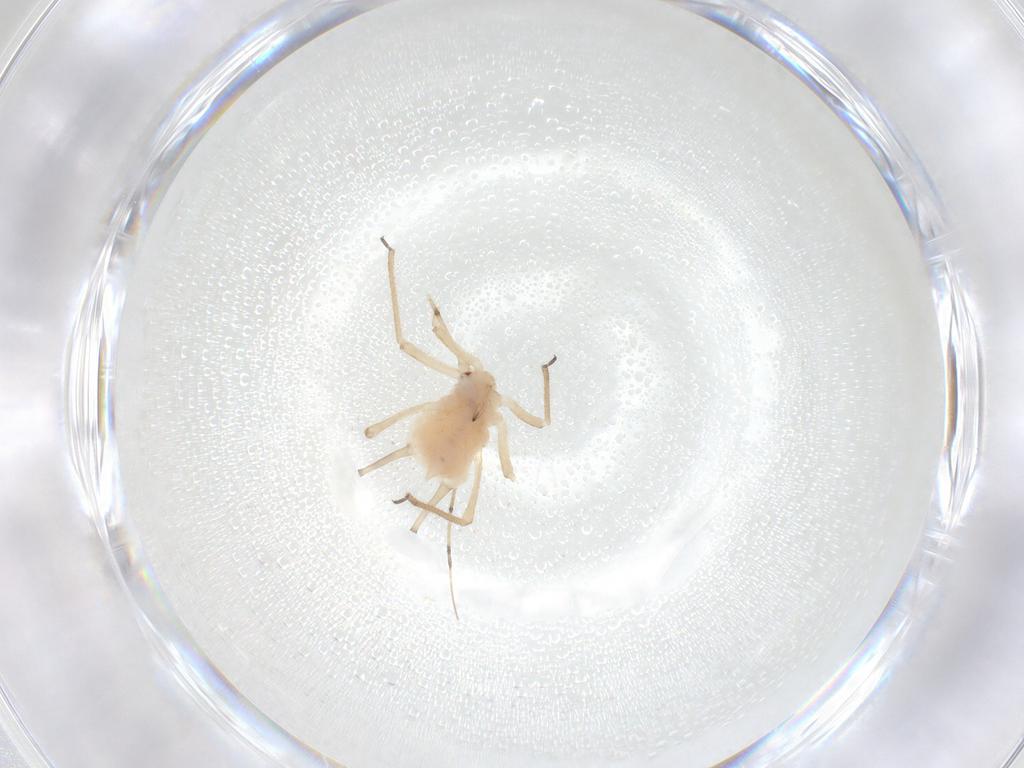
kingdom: Animalia
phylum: Arthropoda
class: Insecta
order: Hemiptera
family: Aphididae
